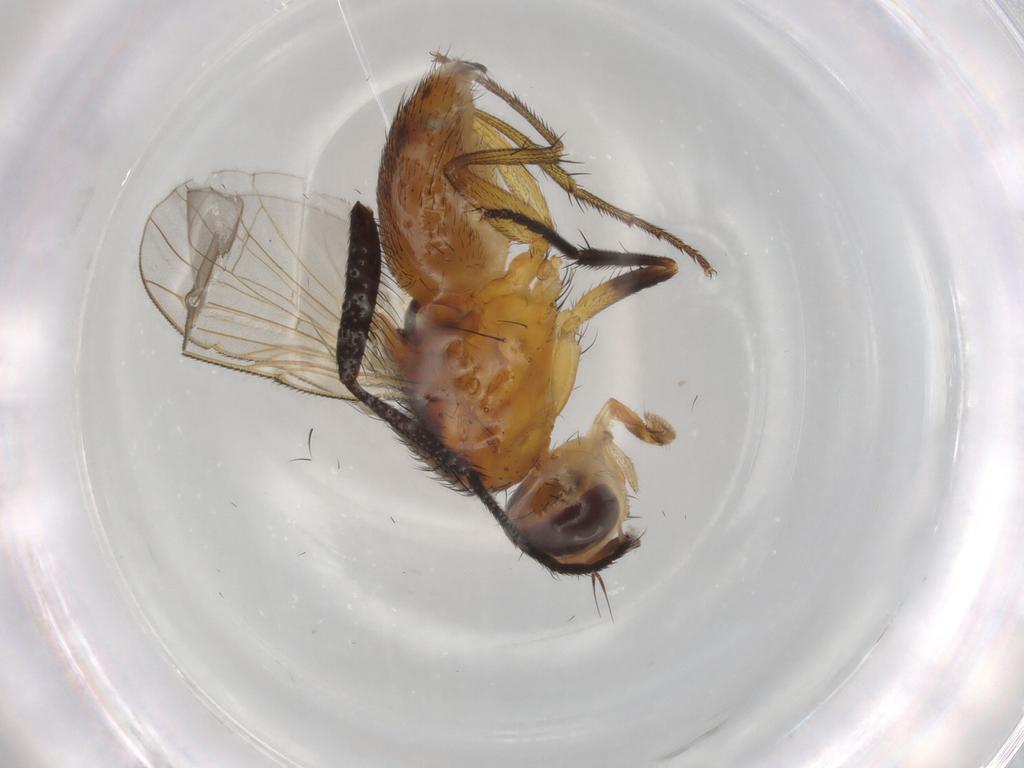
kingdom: Animalia
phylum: Arthropoda
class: Insecta
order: Diptera
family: Muscidae
